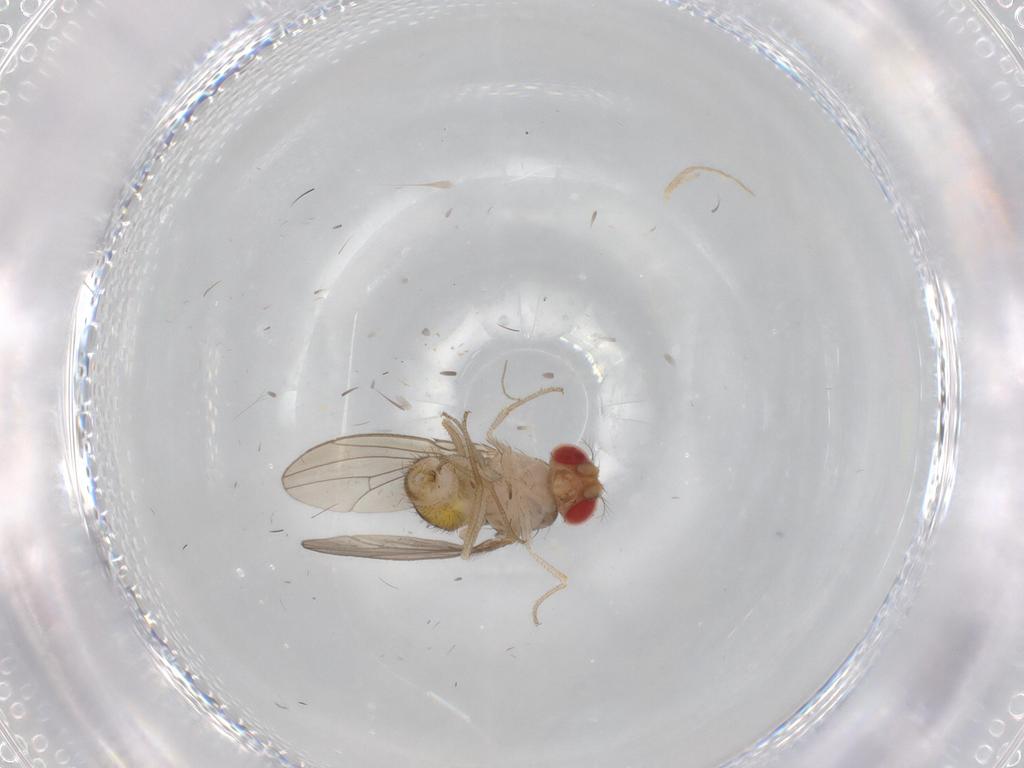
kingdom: Animalia
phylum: Arthropoda
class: Insecta
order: Diptera
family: Drosophilidae
